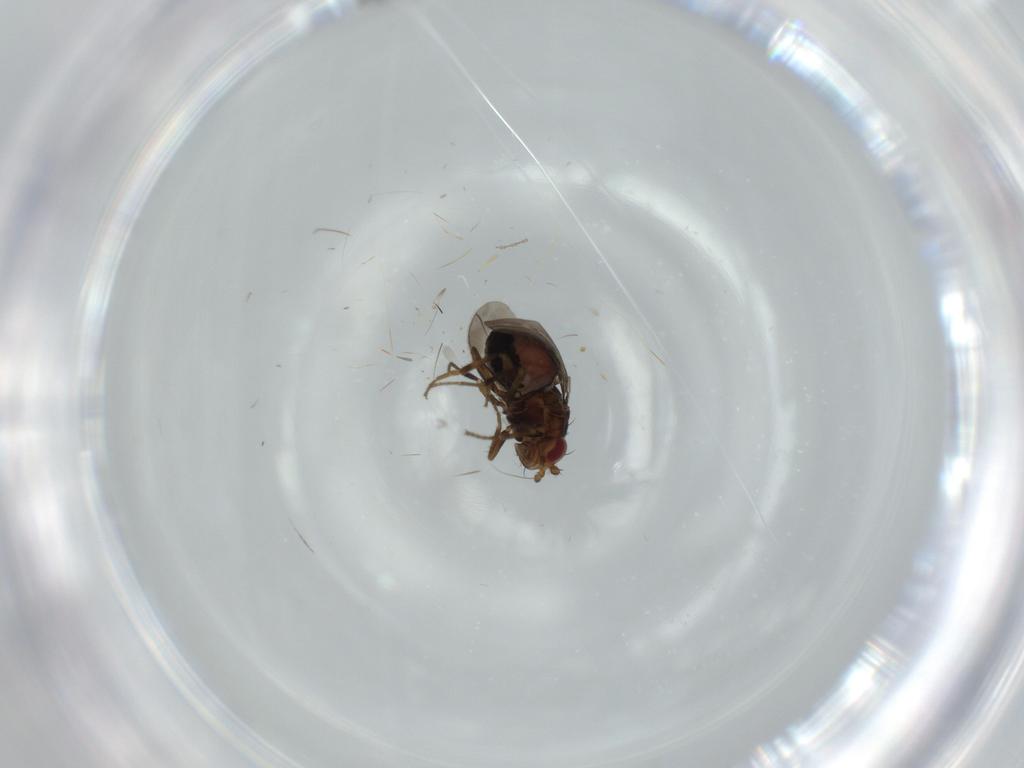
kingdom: Animalia
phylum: Arthropoda
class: Insecta
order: Diptera
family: Sphaeroceridae
